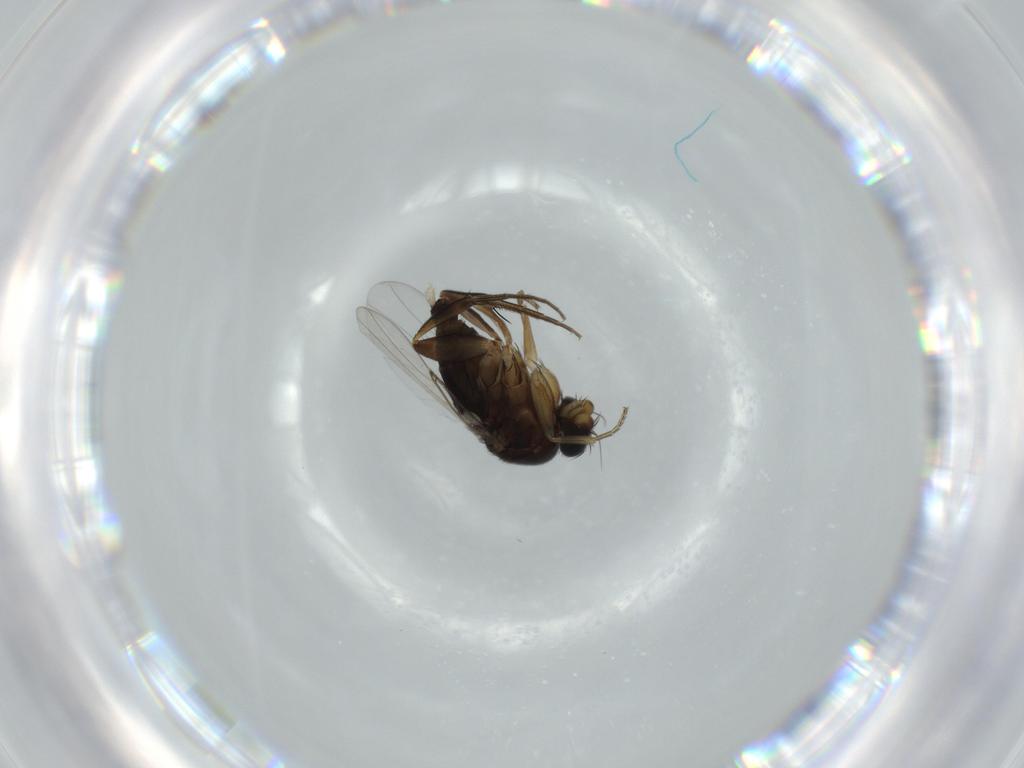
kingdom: Animalia
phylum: Arthropoda
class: Insecta
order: Diptera
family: Phoridae
